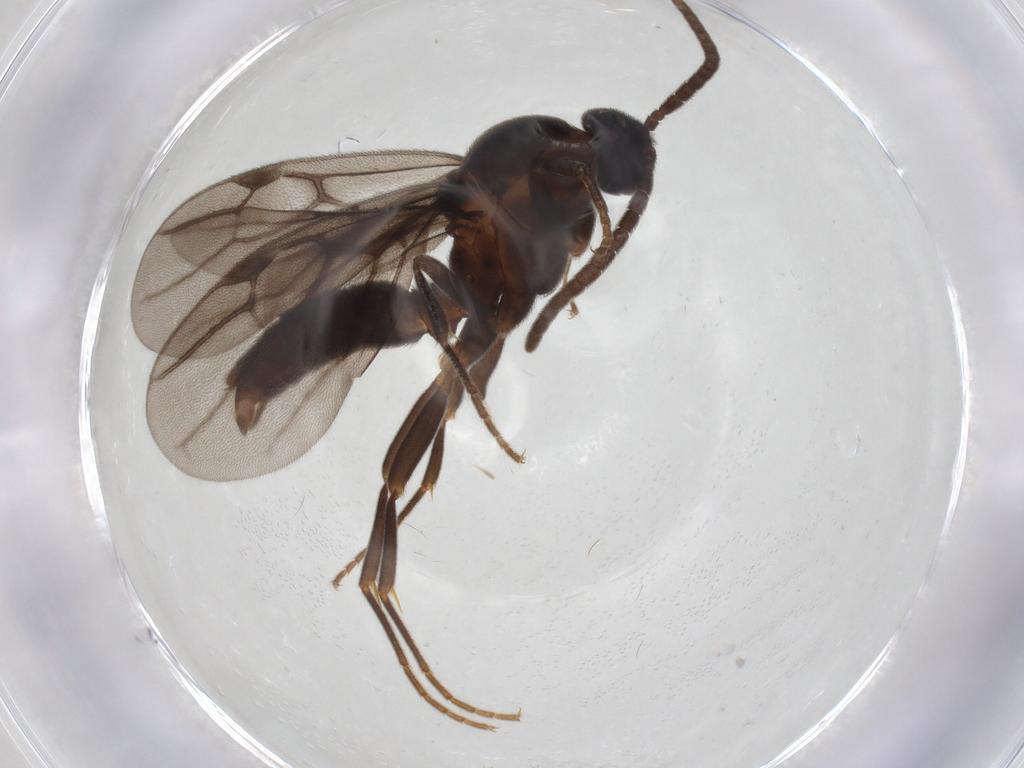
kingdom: Animalia
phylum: Arthropoda
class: Insecta
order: Hymenoptera
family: Formicidae
